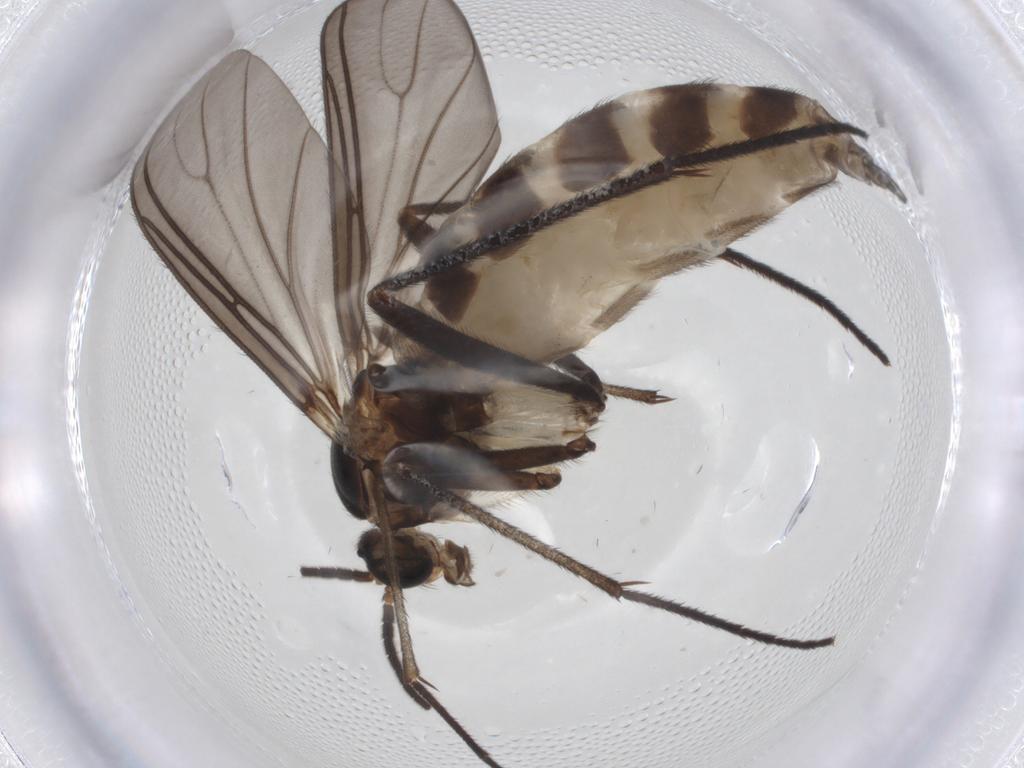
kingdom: Animalia
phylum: Arthropoda
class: Insecta
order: Diptera
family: Sciaridae
